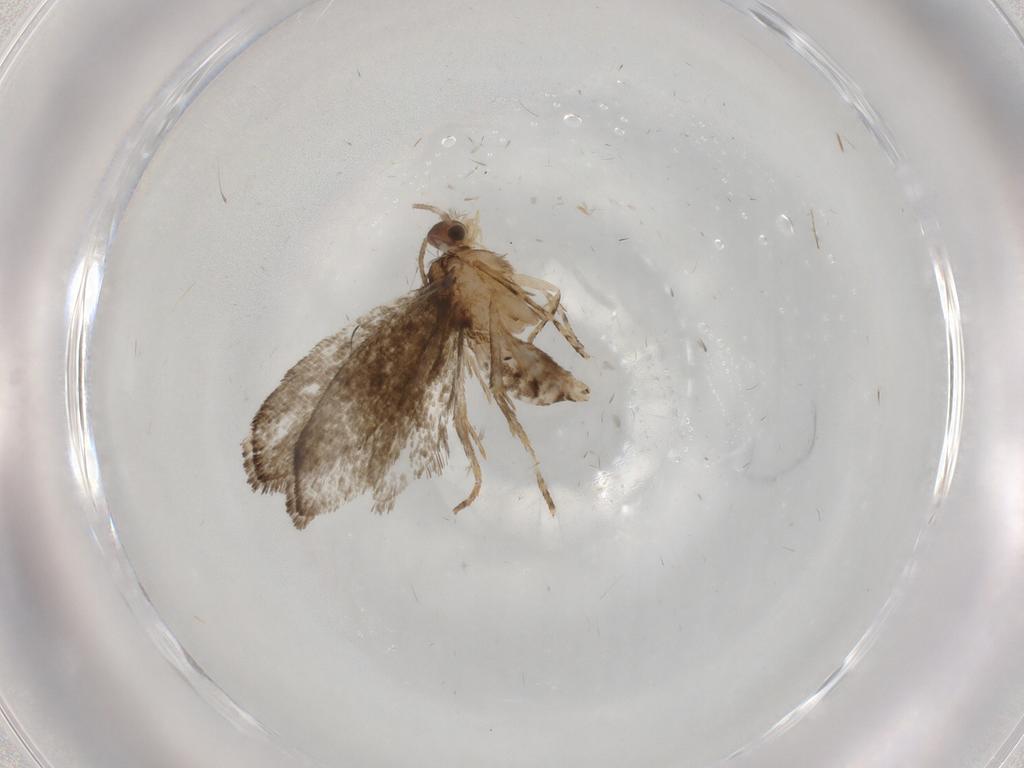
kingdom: Animalia
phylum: Arthropoda
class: Insecta
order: Lepidoptera
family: Tineidae
